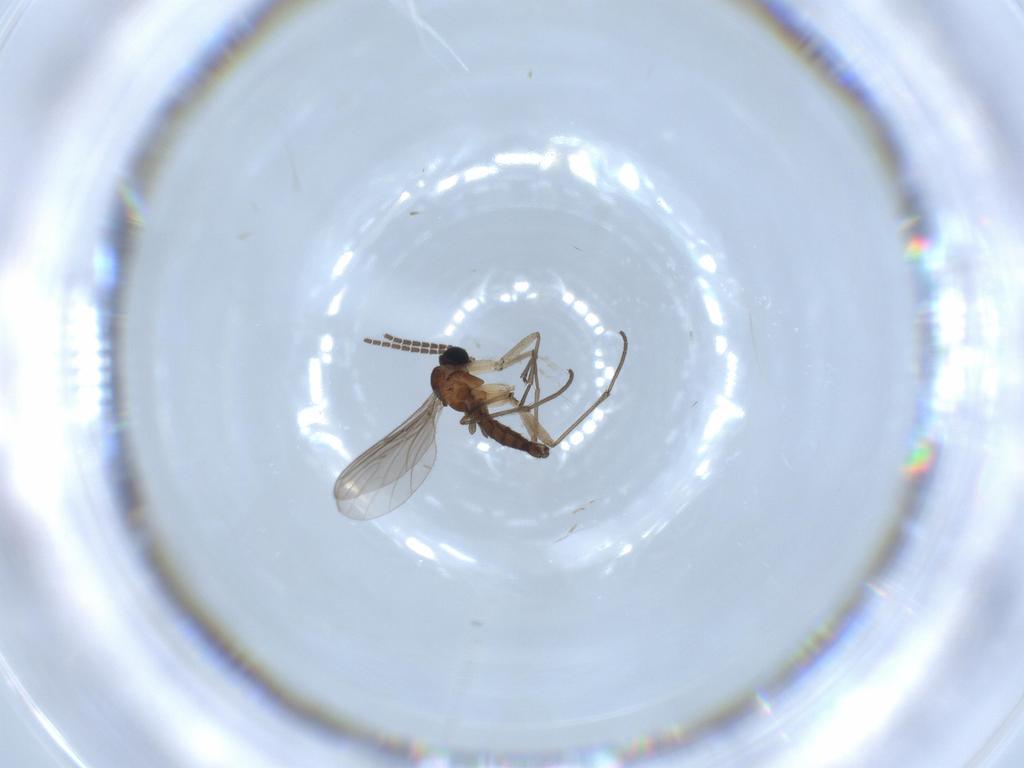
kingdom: Animalia
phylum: Arthropoda
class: Insecta
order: Diptera
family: Sciaridae
